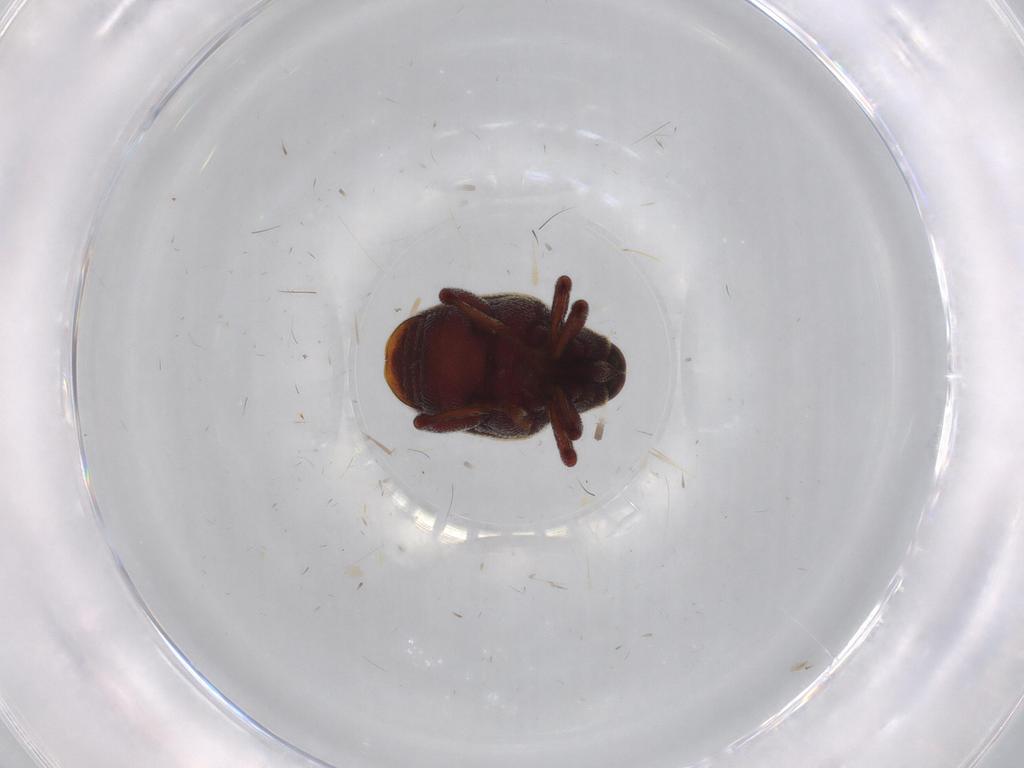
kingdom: Animalia
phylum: Arthropoda
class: Insecta
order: Coleoptera
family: Curculionidae
